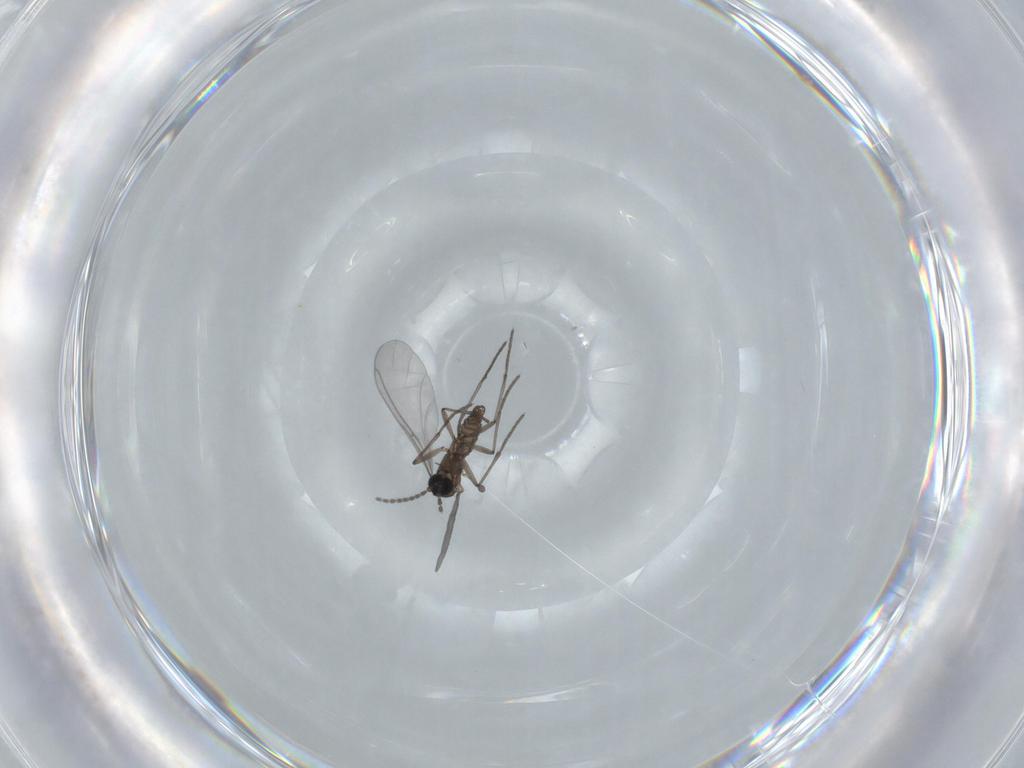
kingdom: Animalia
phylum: Arthropoda
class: Insecta
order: Diptera
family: Sciaridae
